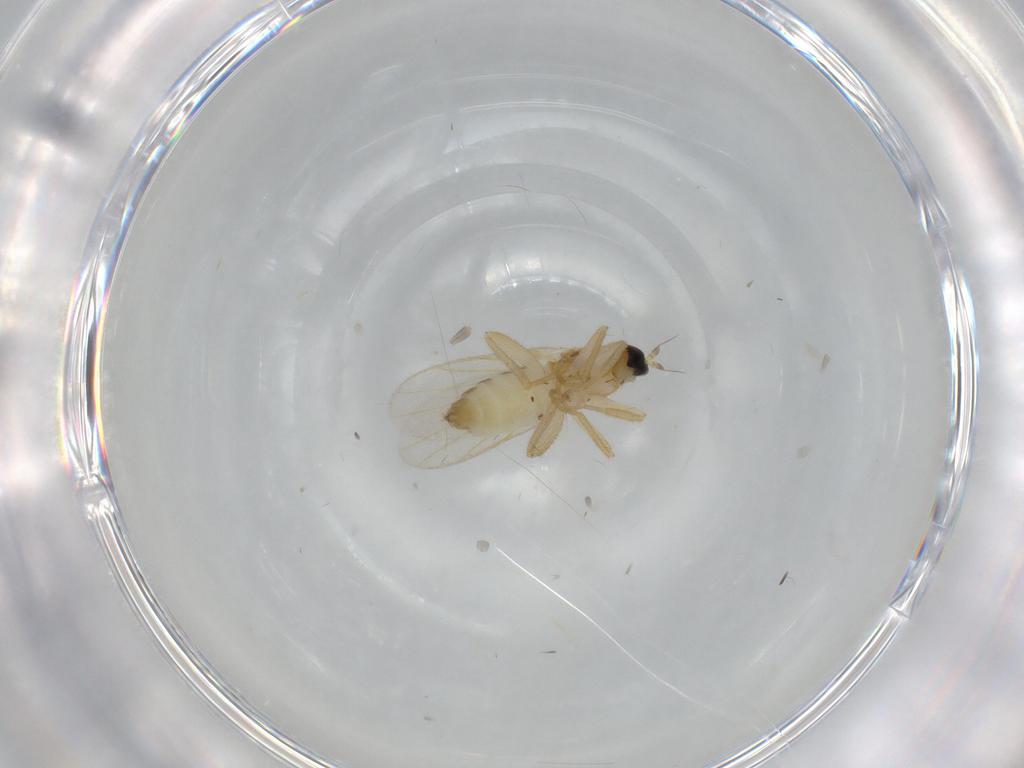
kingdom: Animalia
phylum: Arthropoda
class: Insecta
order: Diptera
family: Hybotidae
